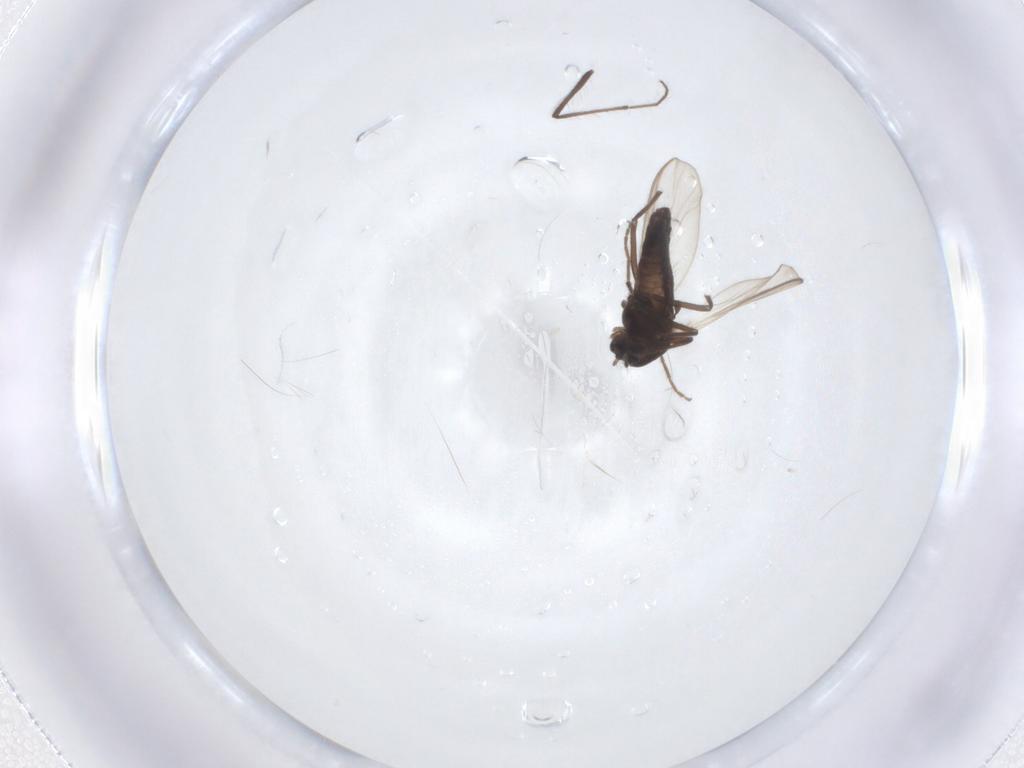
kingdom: Animalia
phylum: Arthropoda
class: Insecta
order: Diptera
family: Chironomidae
